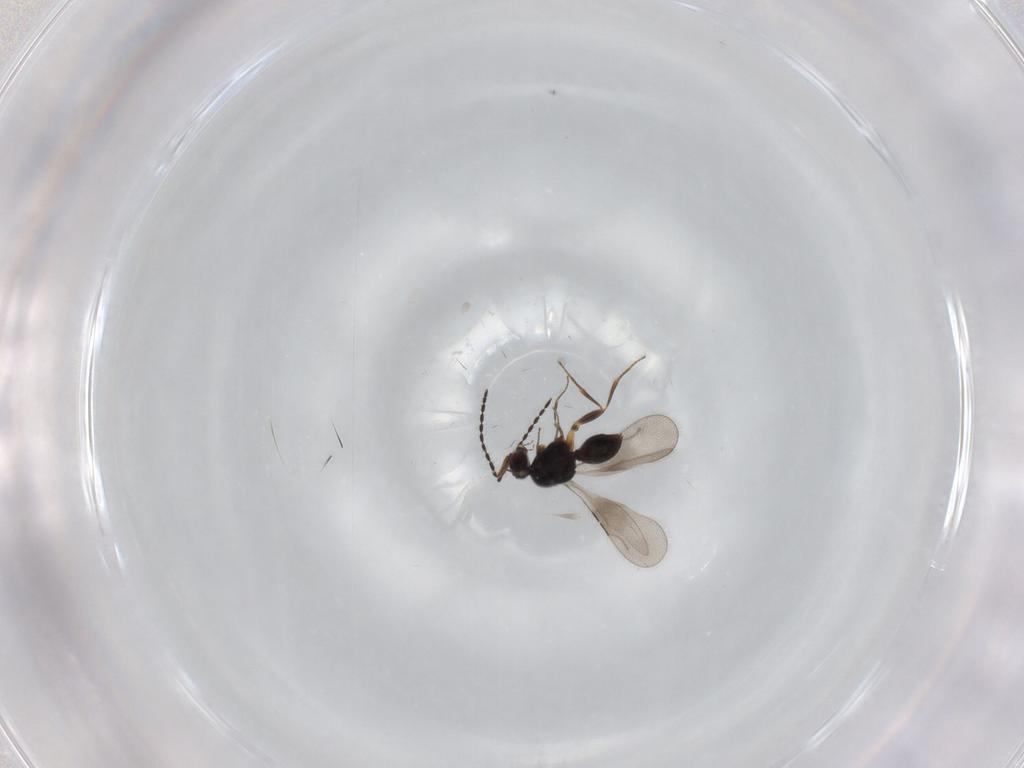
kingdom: Animalia
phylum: Arthropoda
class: Insecta
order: Hymenoptera
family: Ceraphronidae
